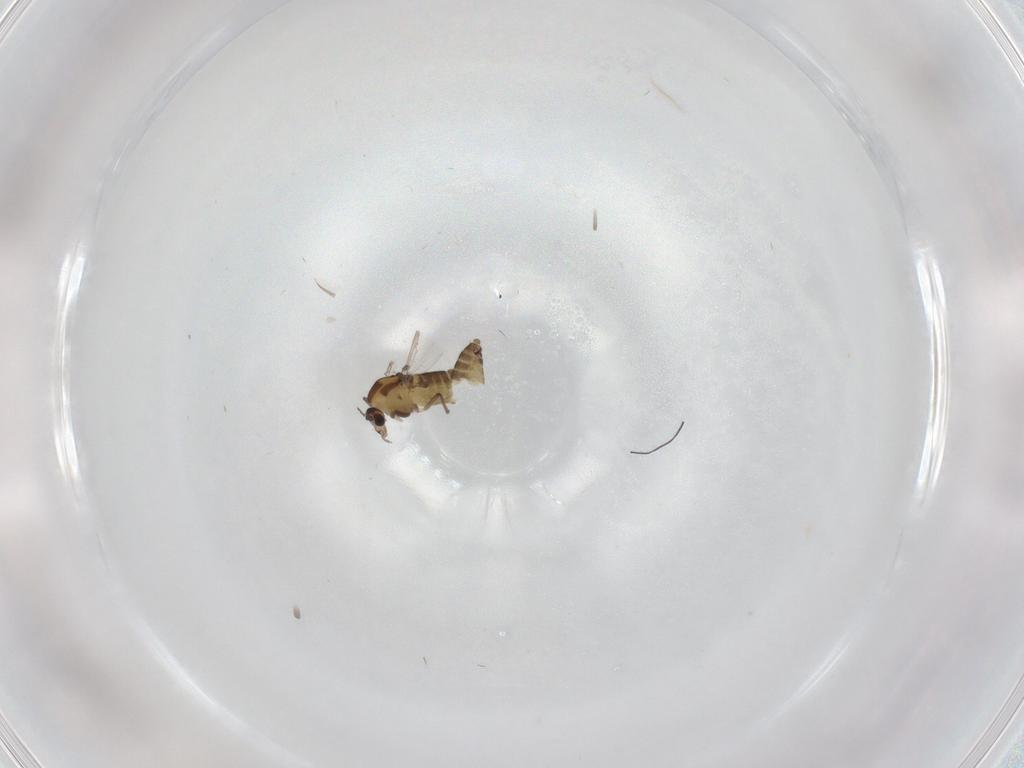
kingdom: Animalia
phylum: Arthropoda
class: Insecta
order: Diptera
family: Chironomidae
